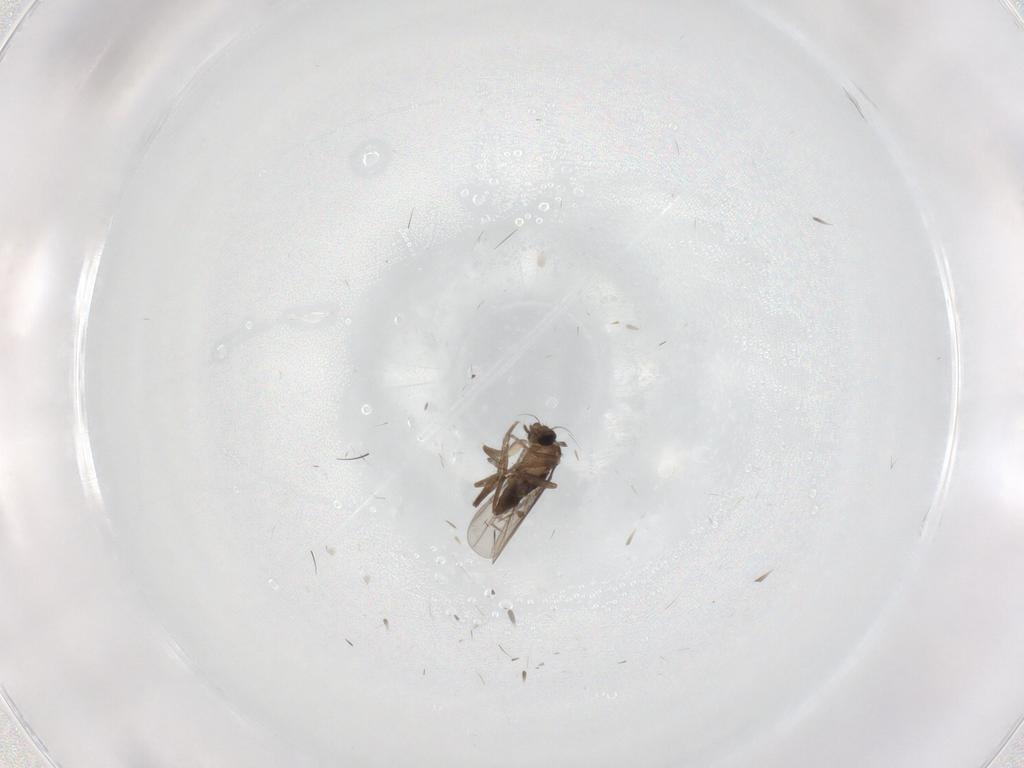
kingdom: Animalia
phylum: Arthropoda
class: Insecta
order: Diptera
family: Psychodidae
